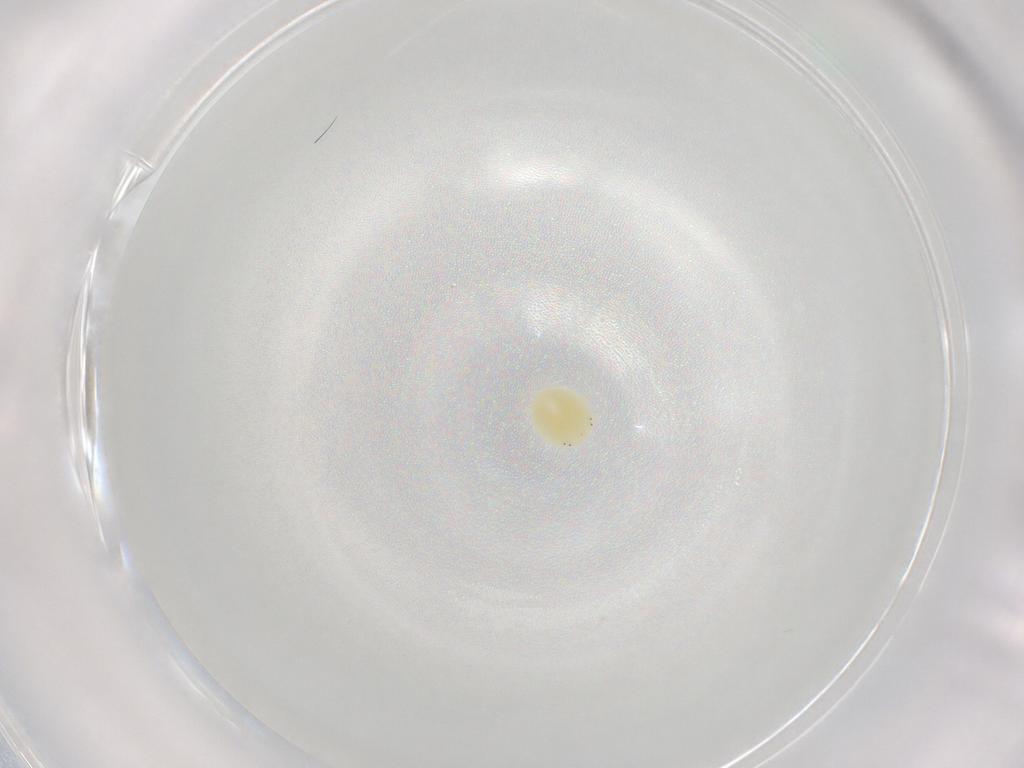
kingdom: Animalia
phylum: Arthropoda
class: Arachnida
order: Trombidiformes
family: Hydryphantidae
